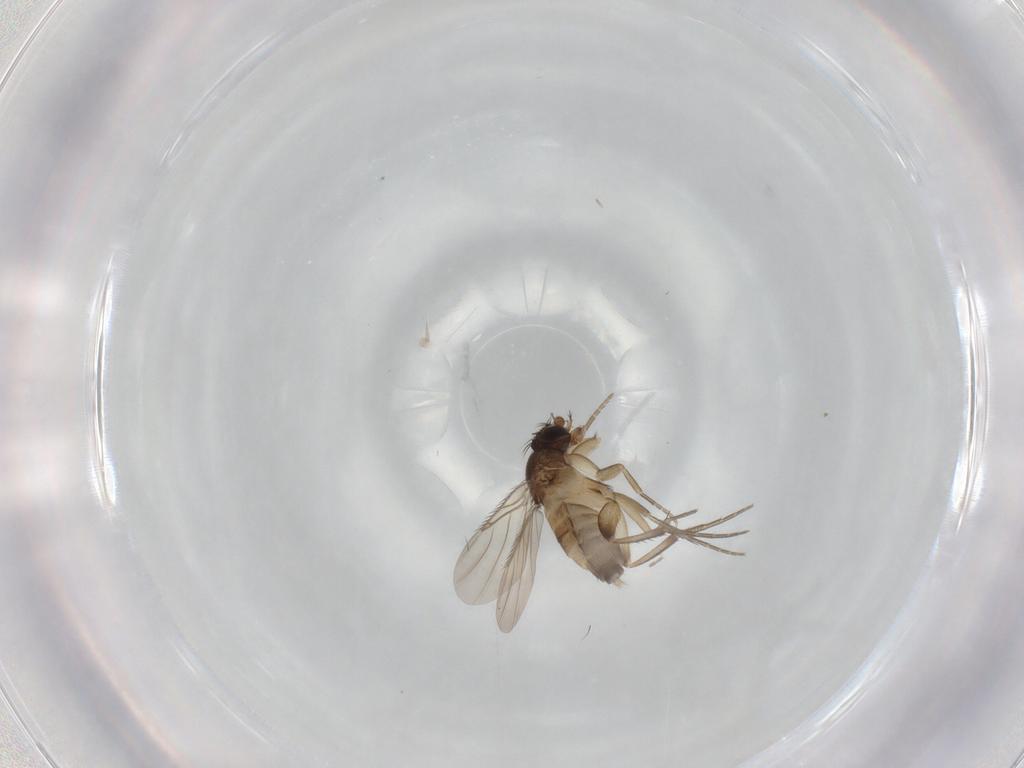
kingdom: Animalia
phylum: Arthropoda
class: Insecta
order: Diptera
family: Phoridae
